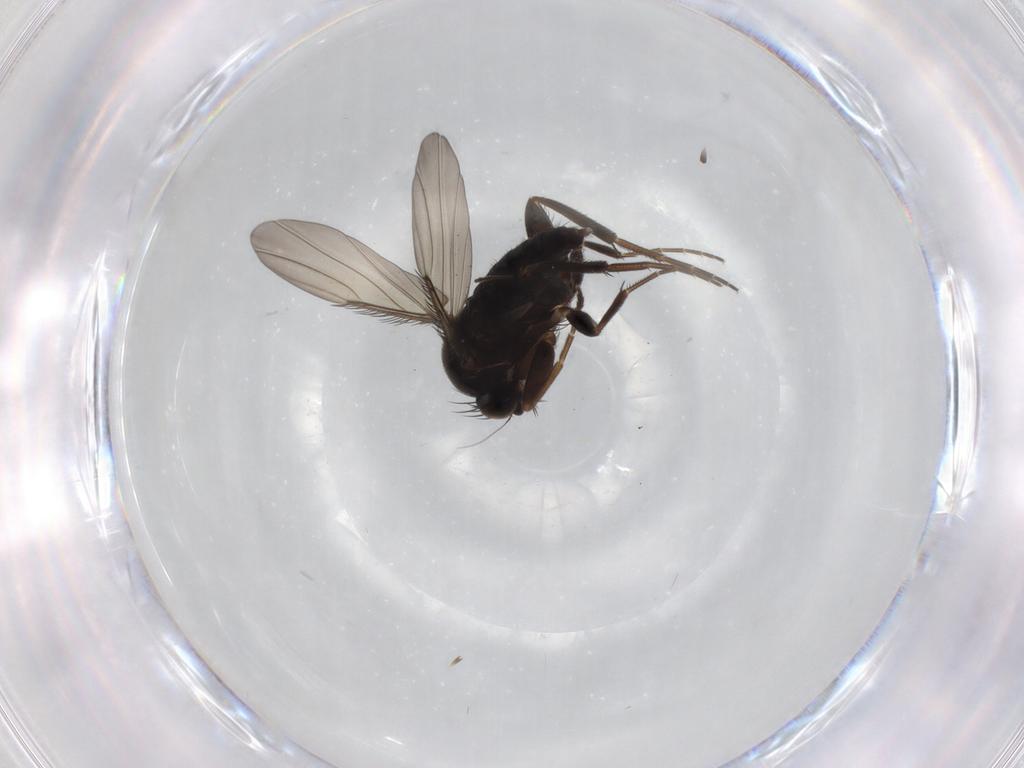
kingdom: Animalia
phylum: Arthropoda
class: Insecta
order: Diptera
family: Phoridae
